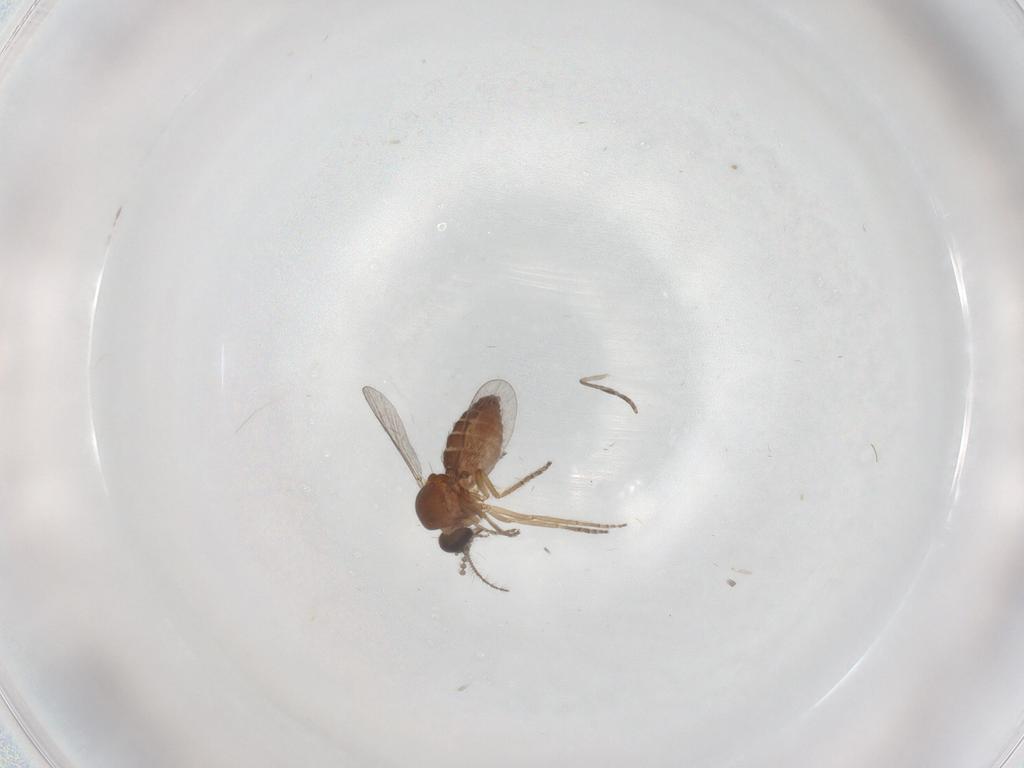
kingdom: Animalia
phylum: Arthropoda
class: Insecta
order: Diptera
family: Ceratopogonidae
